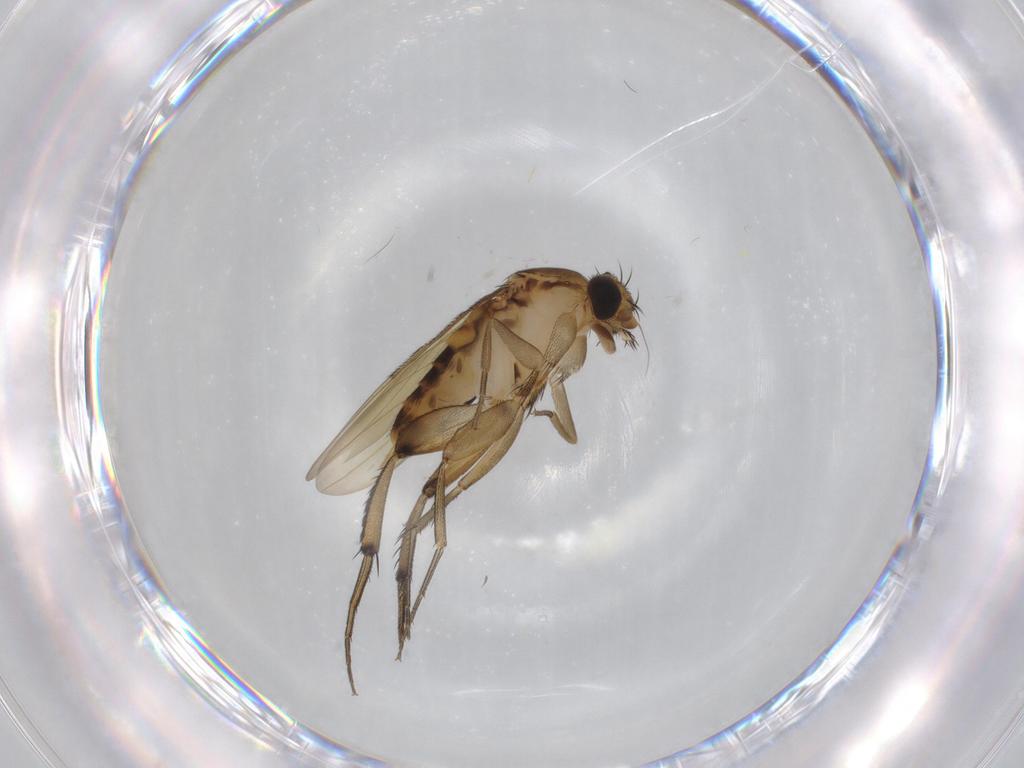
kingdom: Animalia
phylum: Arthropoda
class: Insecta
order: Diptera
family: Phoridae
